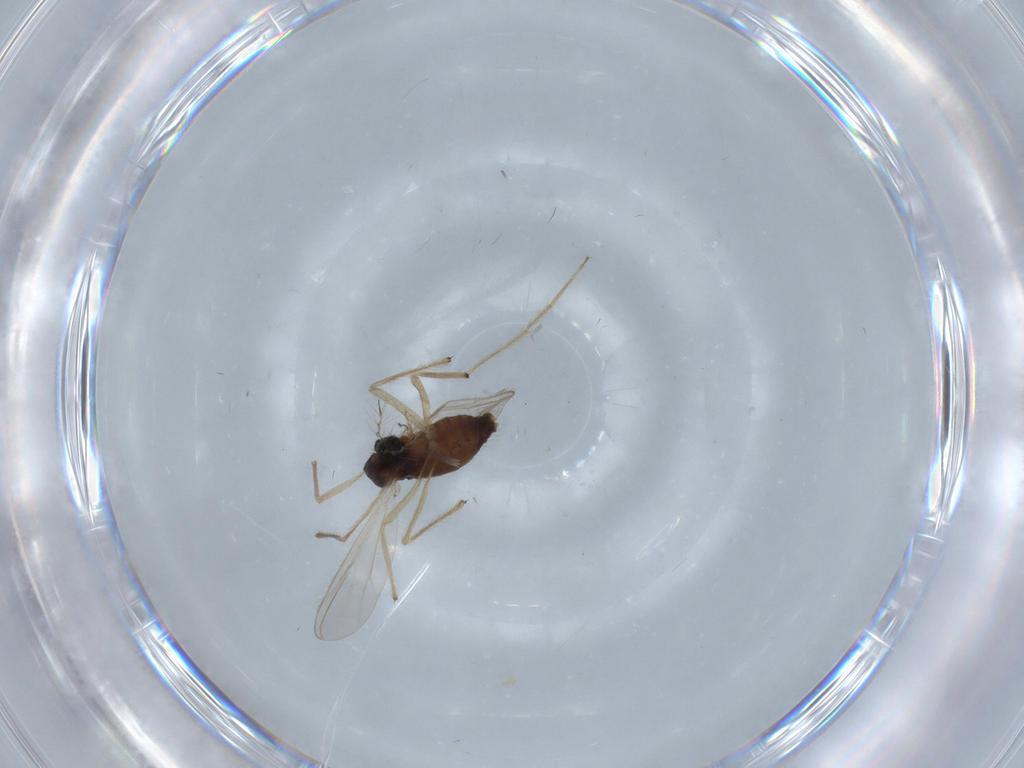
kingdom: Animalia
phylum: Arthropoda
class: Insecta
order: Diptera
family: Chironomidae
